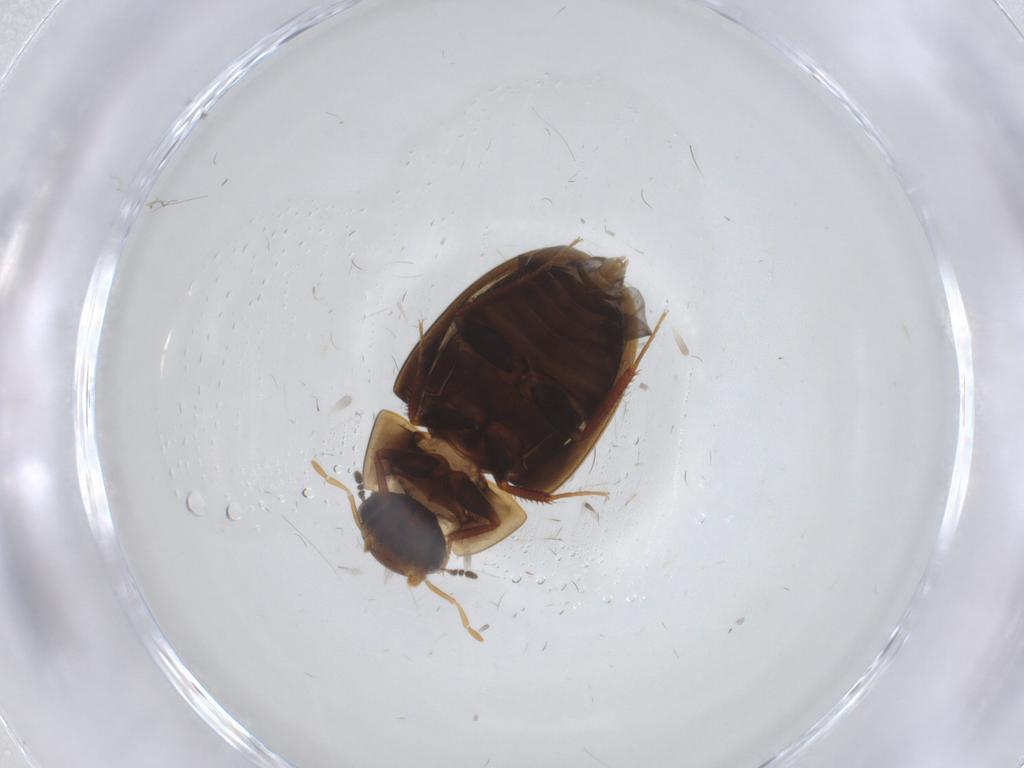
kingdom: Animalia
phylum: Arthropoda
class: Insecta
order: Coleoptera
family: Hydrophilidae
